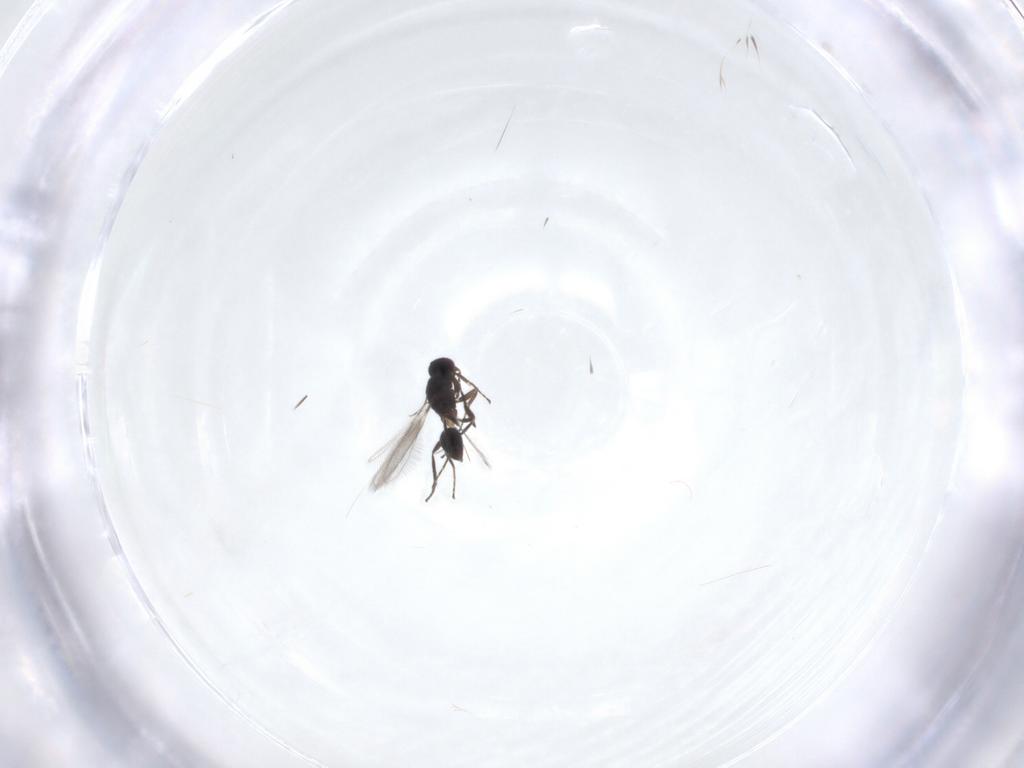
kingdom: Animalia
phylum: Arthropoda
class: Insecta
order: Hymenoptera
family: Mymaridae
